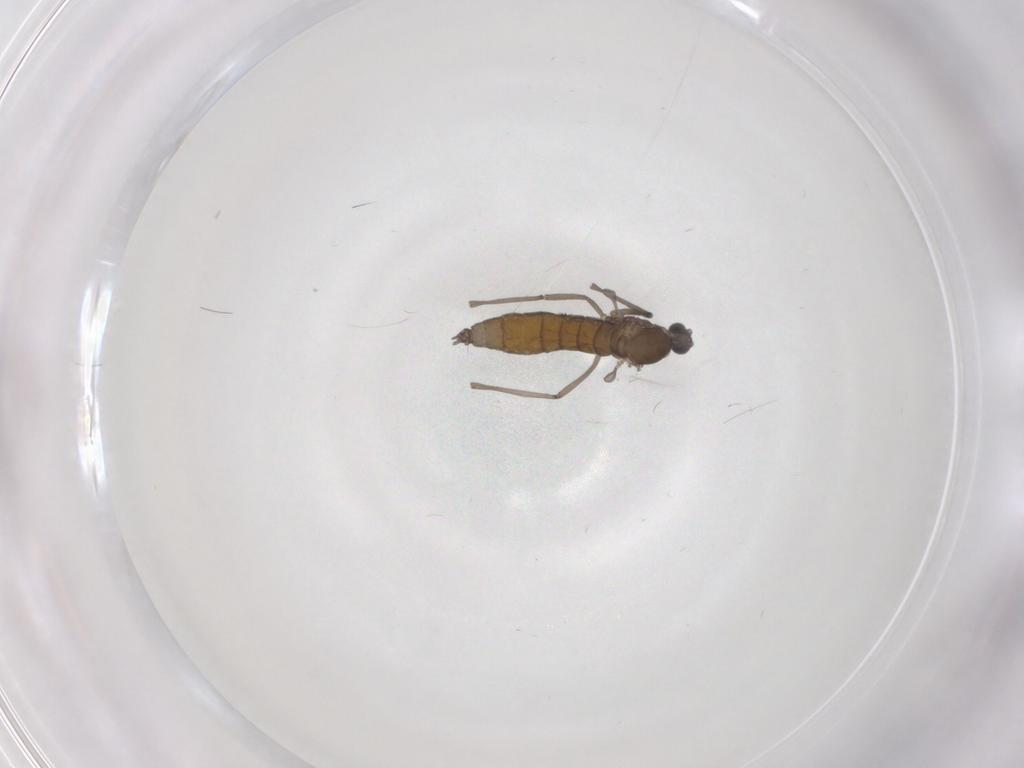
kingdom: Animalia
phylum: Arthropoda
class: Insecta
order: Diptera
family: Cecidomyiidae
